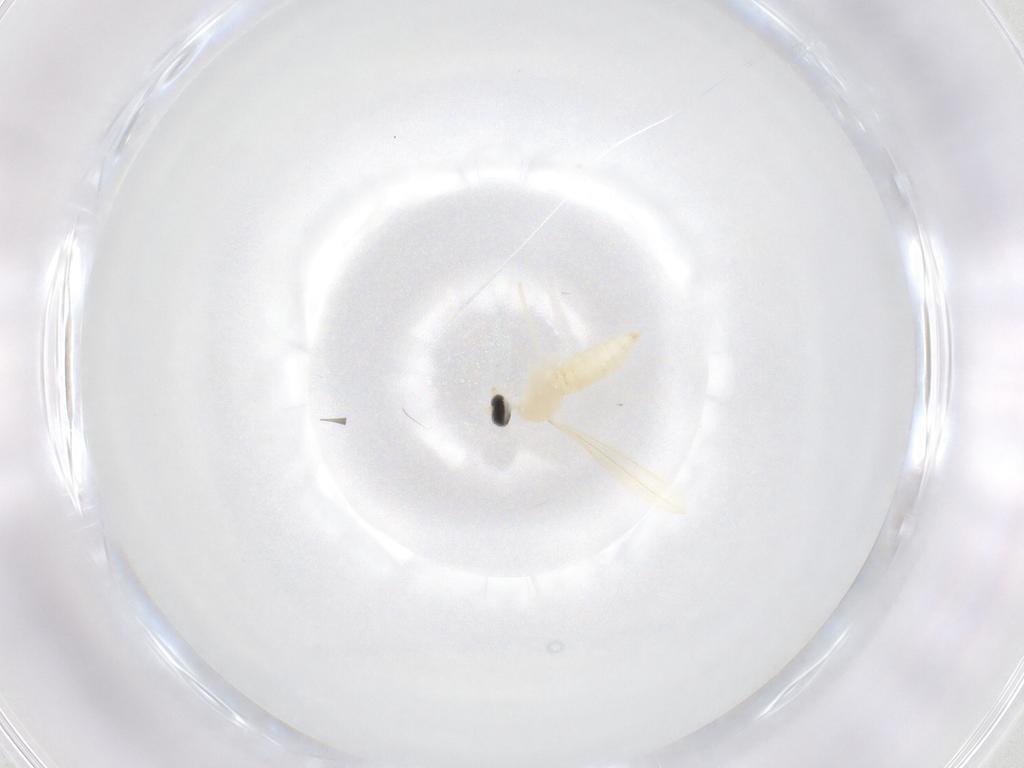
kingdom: Animalia
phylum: Arthropoda
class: Insecta
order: Diptera
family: Cecidomyiidae
